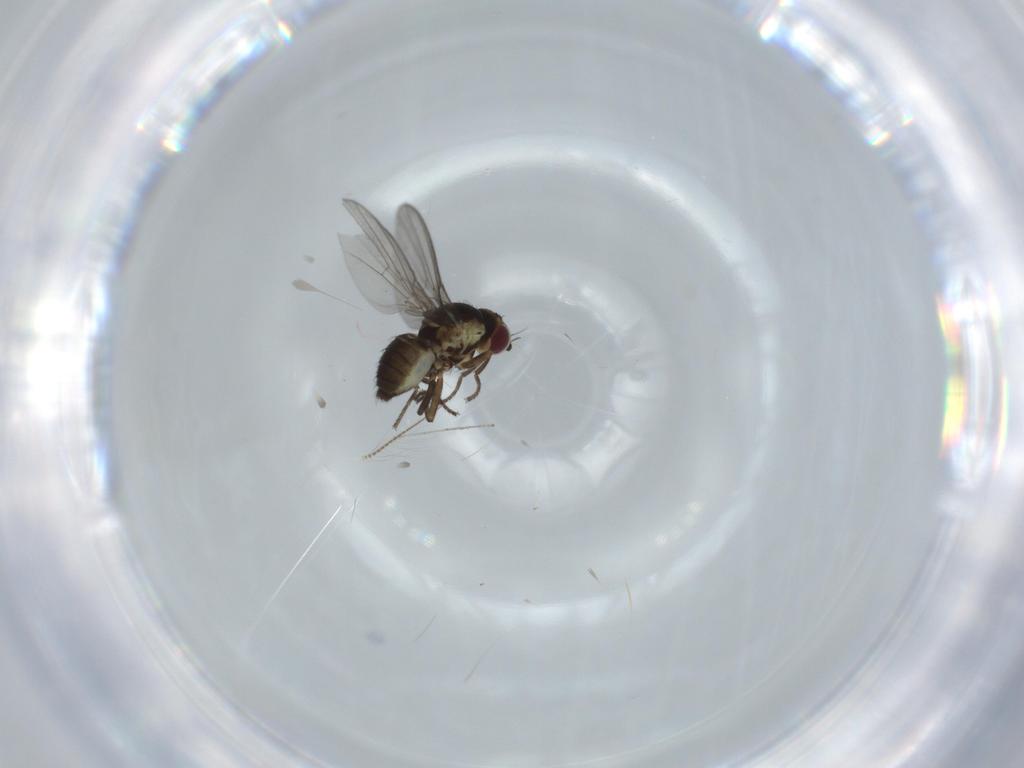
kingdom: Animalia
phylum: Arthropoda
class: Insecta
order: Diptera
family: Agromyzidae
